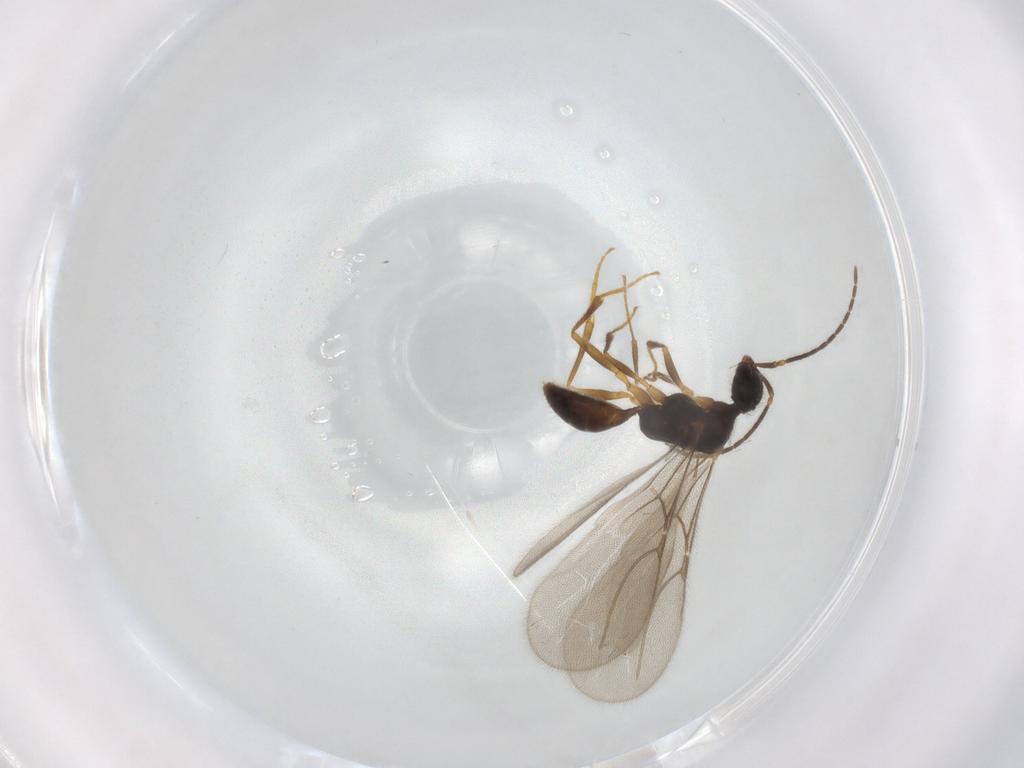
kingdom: Animalia
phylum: Arthropoda
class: Insecta
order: Hymenoptera
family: Bethylidae
